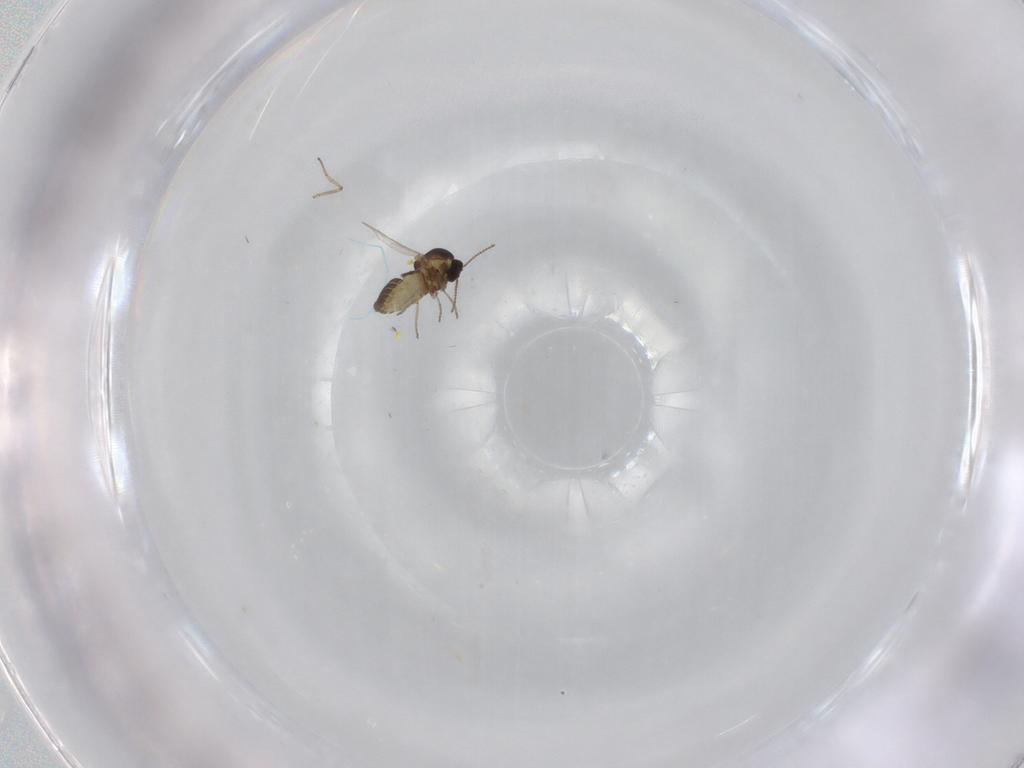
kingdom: Animalia
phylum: Arthropoda
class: Insecta
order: Diptera
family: Ceratopogonidae
